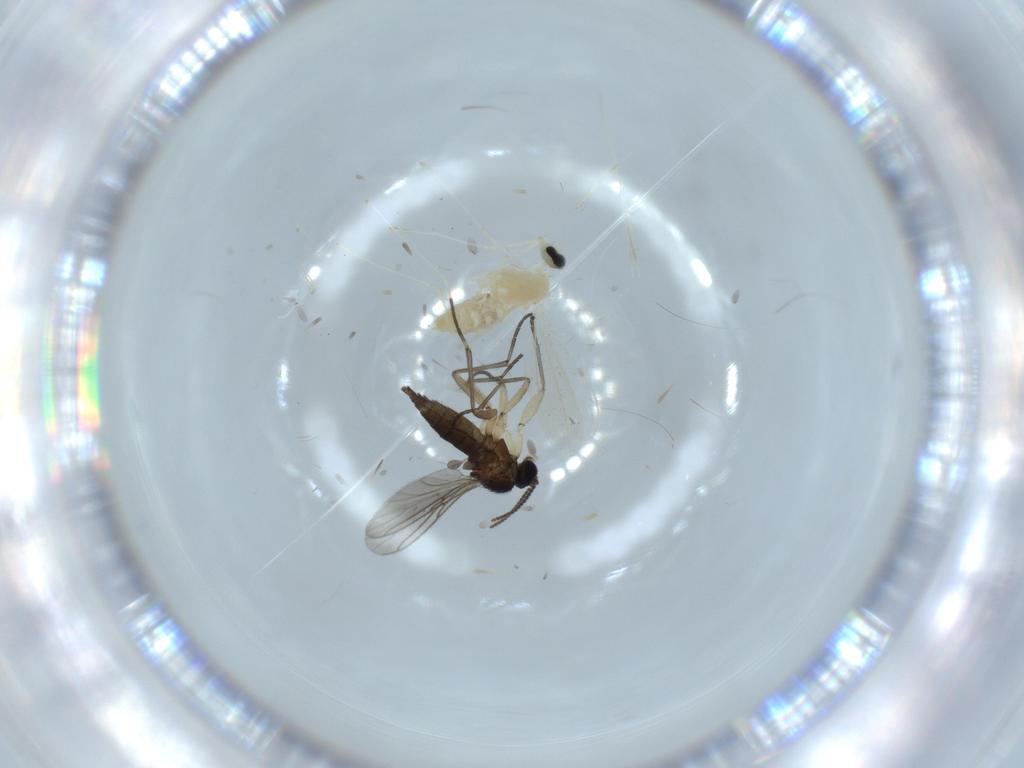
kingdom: Animalia
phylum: Arthropoda
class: Insecta
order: Diptera
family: Cecidomyiidae
